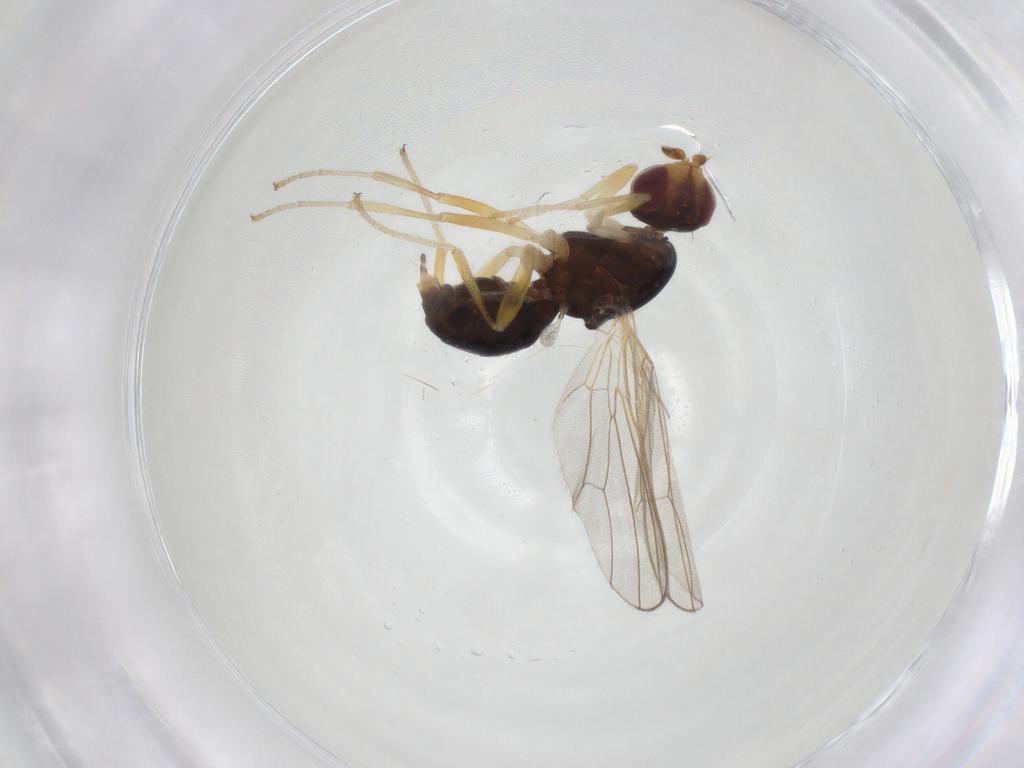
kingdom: Animalia
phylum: Arthropoda
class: Insecta
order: Diptera
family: Psilidae
